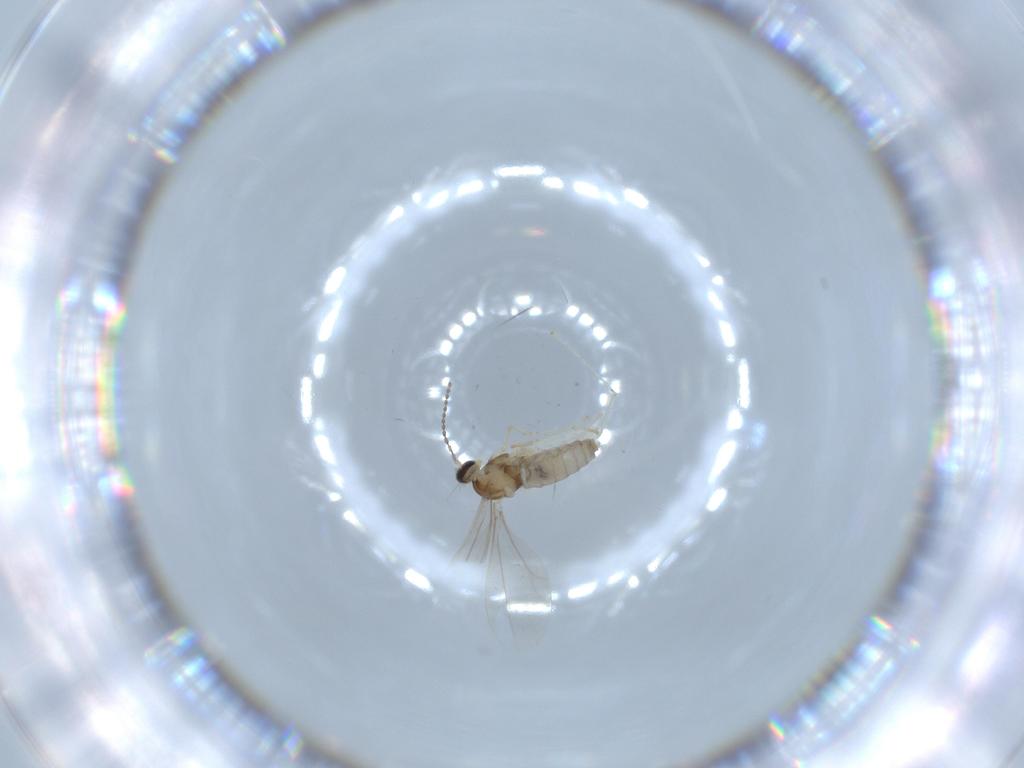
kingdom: Animalia
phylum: Arthropoda
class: Insecta
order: Diptera
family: Cecidomyiidae
